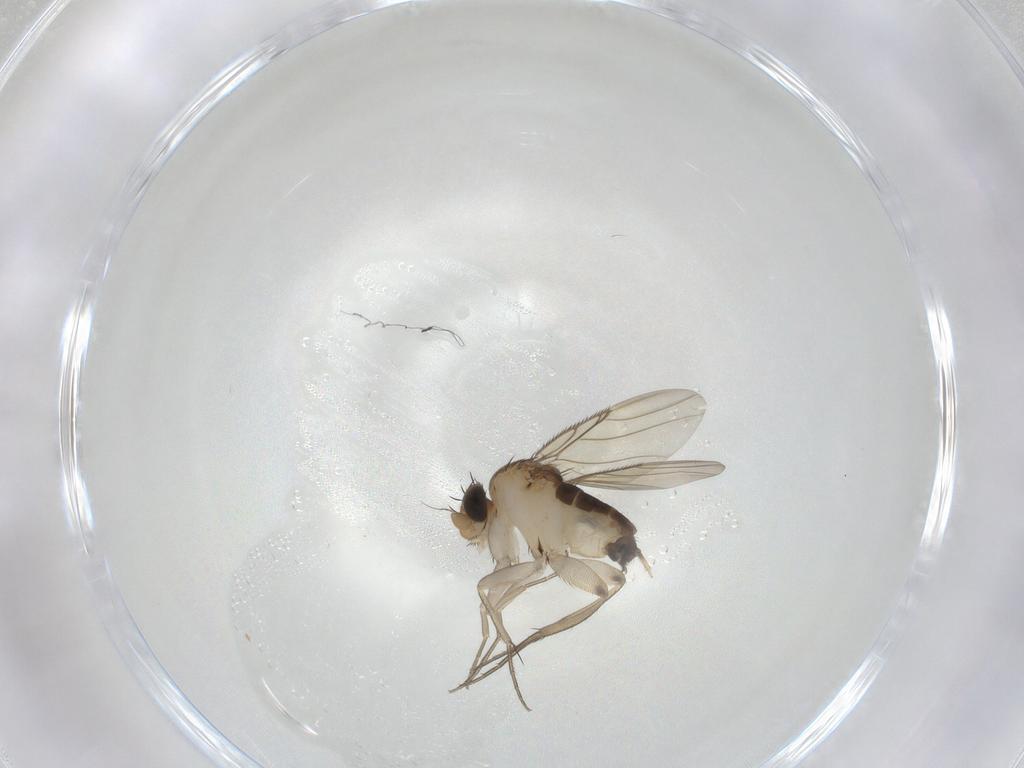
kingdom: Animalia
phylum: Arthropoda
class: Insecta
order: Diptera
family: Phoridae
